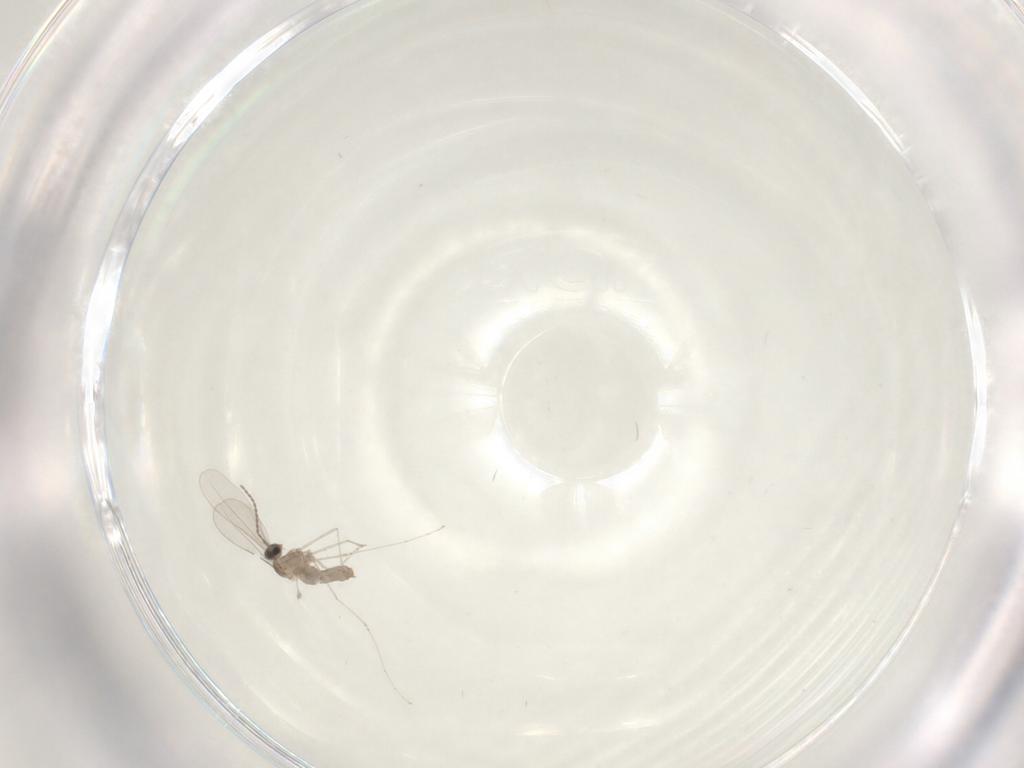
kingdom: Animalia
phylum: Arthropoda
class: Insecta
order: Diptera
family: Cecidomyiidae
